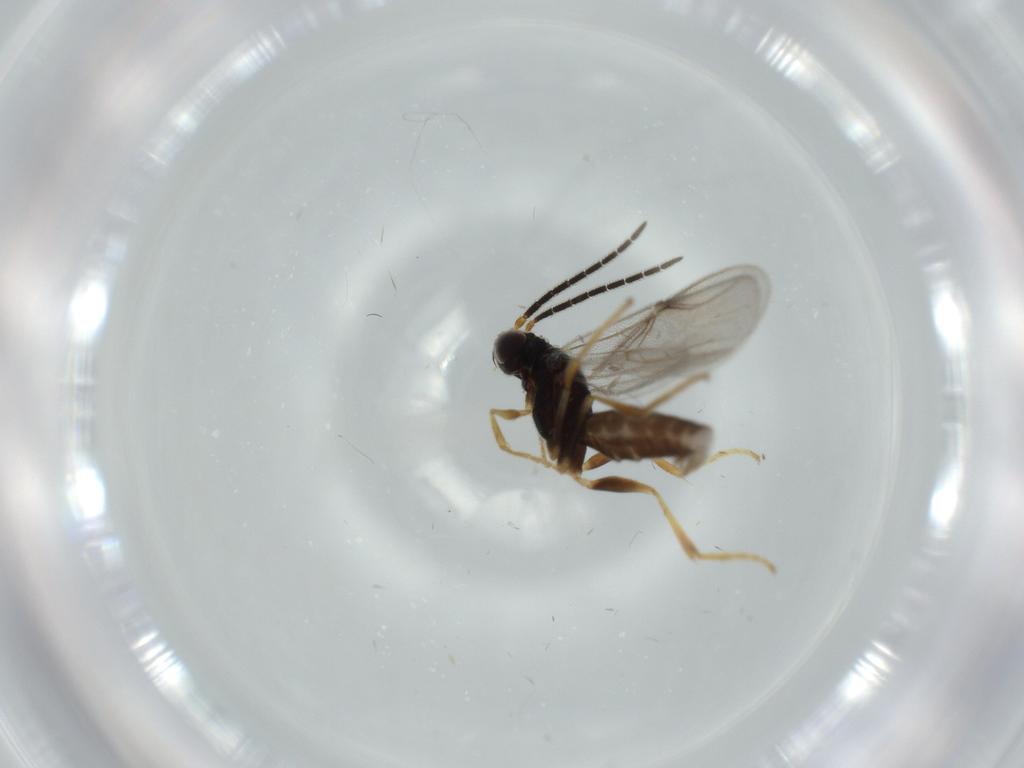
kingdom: Animalia
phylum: Arthropoda
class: Insecta
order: Hymenoptera
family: Dryinidae
